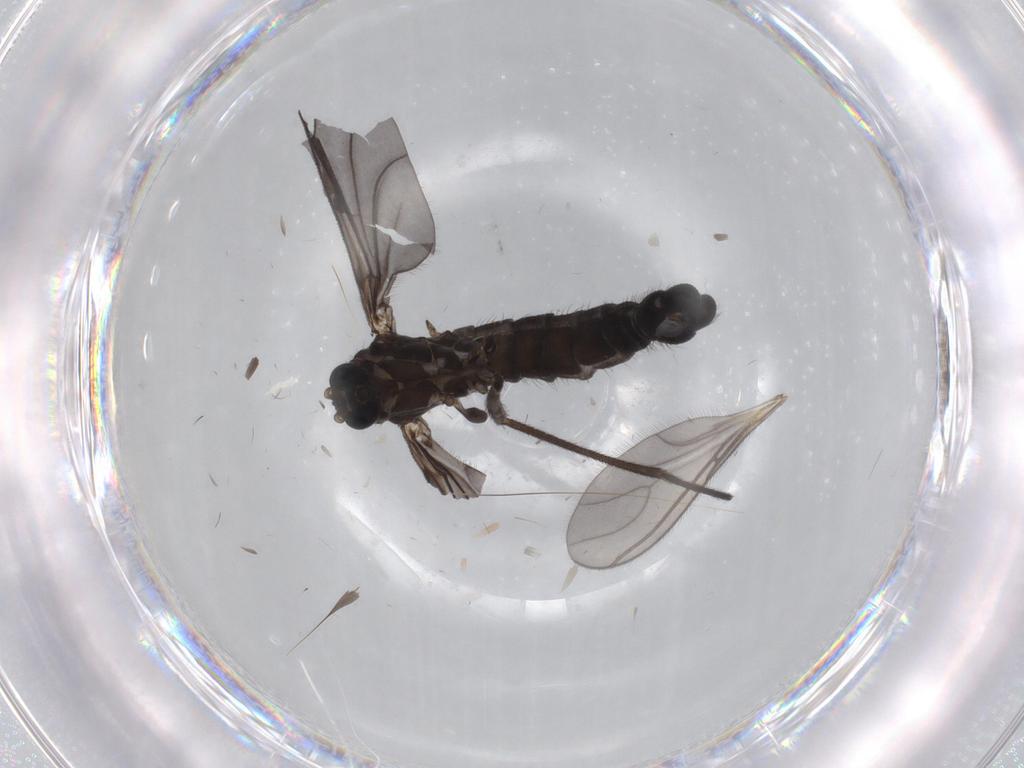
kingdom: Animalia
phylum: Arthropoda
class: Insecta
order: Diptera
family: Sciaridae
